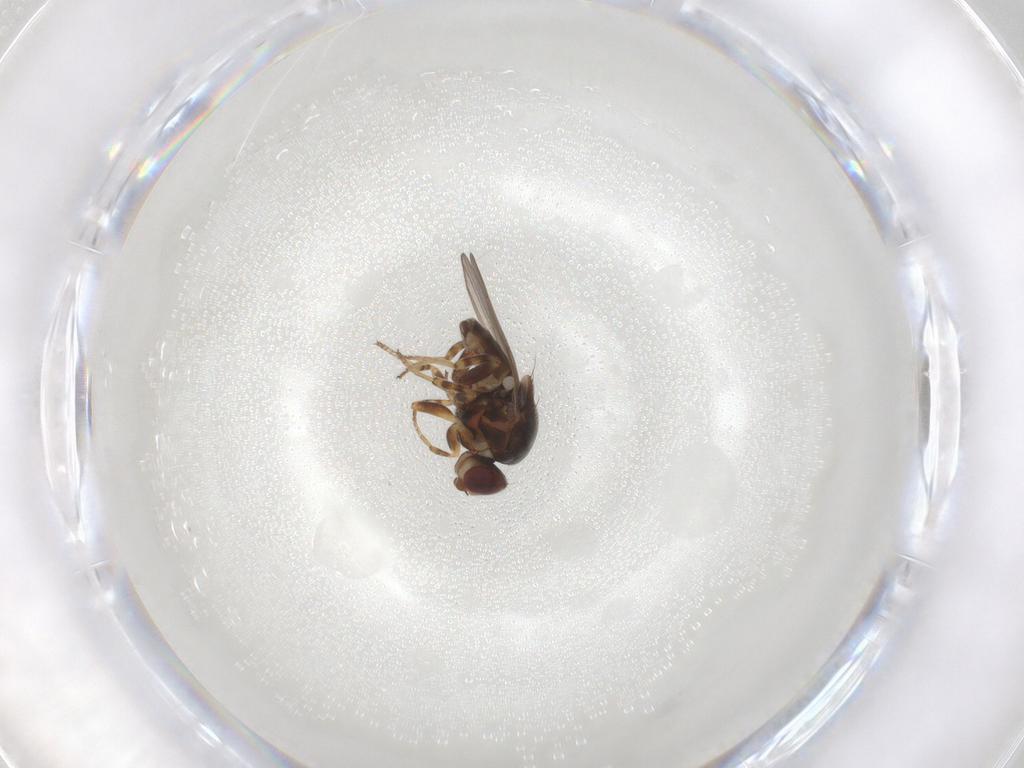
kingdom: Animalia
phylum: Arthropoda
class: Insecta
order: Diptera
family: Chloropidae
